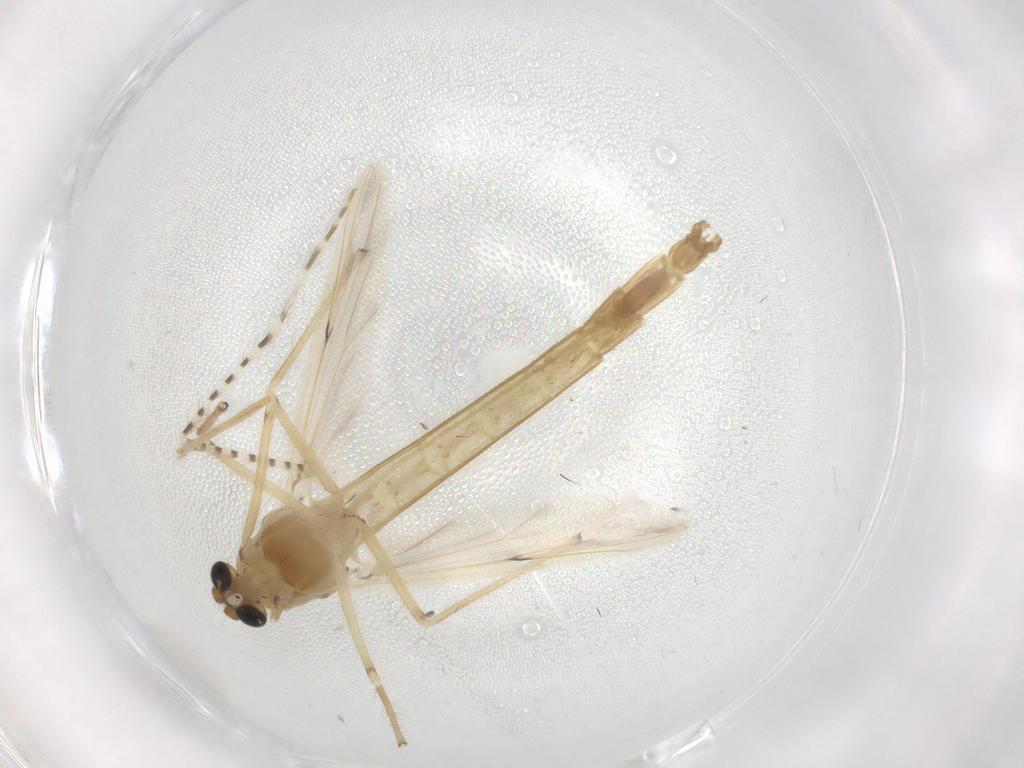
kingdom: Animalia
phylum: Arthropoda
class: Insecta
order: Diptera
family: Chironomidae
